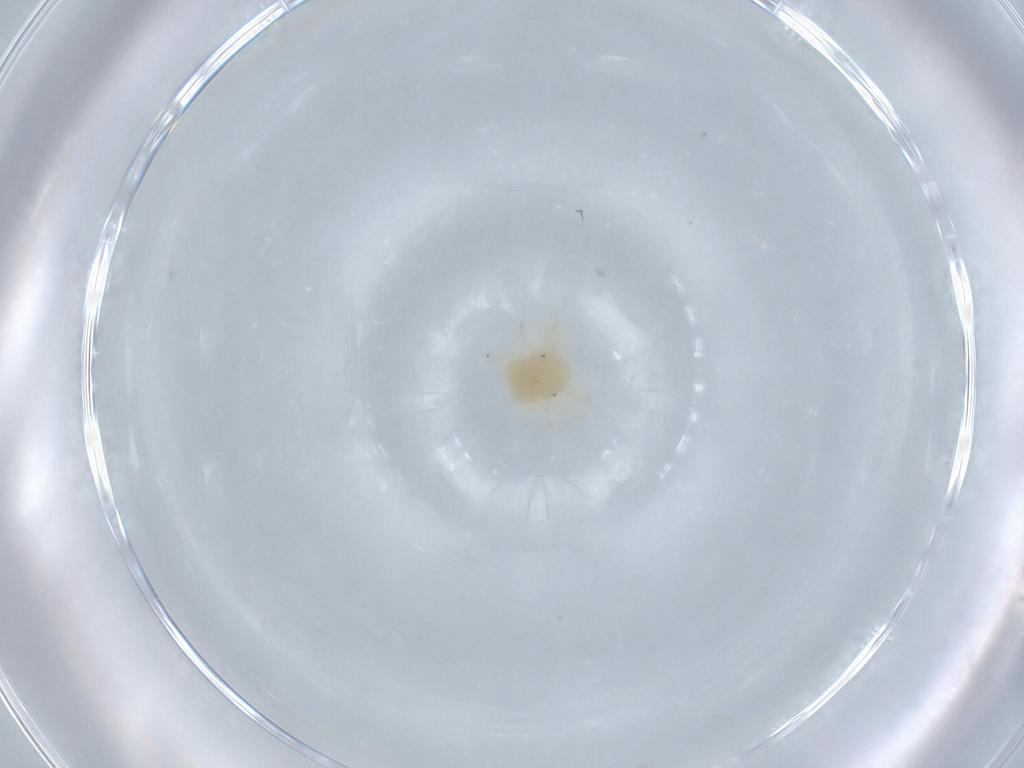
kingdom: Animalia
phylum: Arthropoda
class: Arachnida
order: Trombidiformes
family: Tetranychidae
